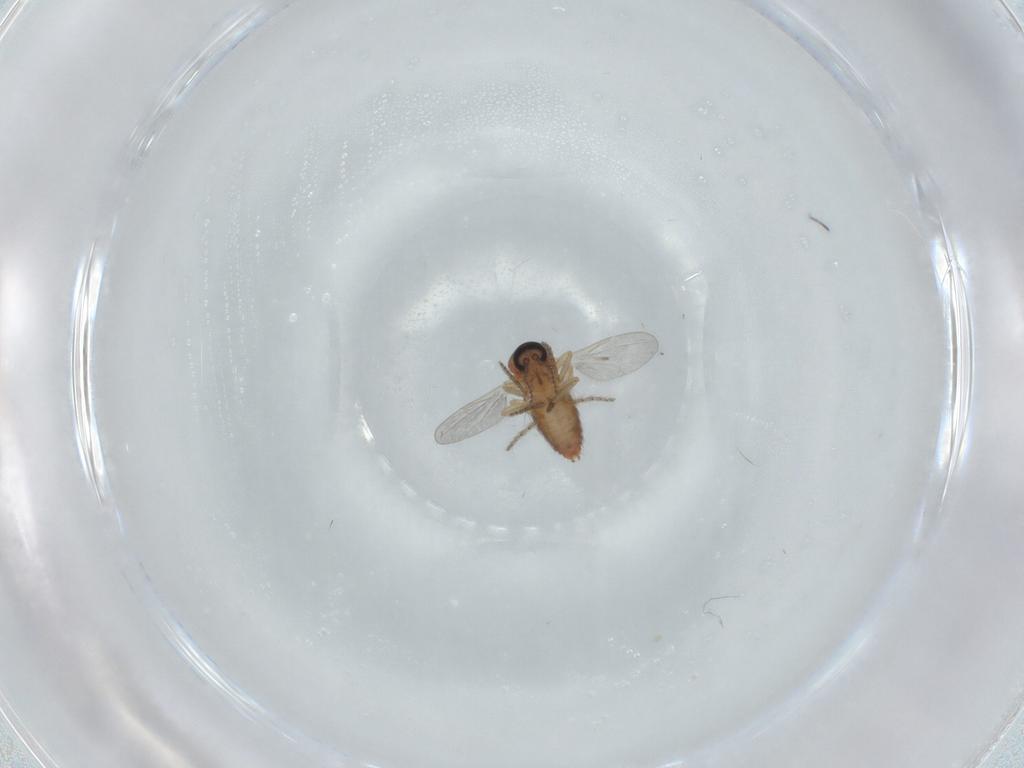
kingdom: Animalia
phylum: Arthropoda
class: Insecta
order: Diptera
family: Ceratopogonidae
